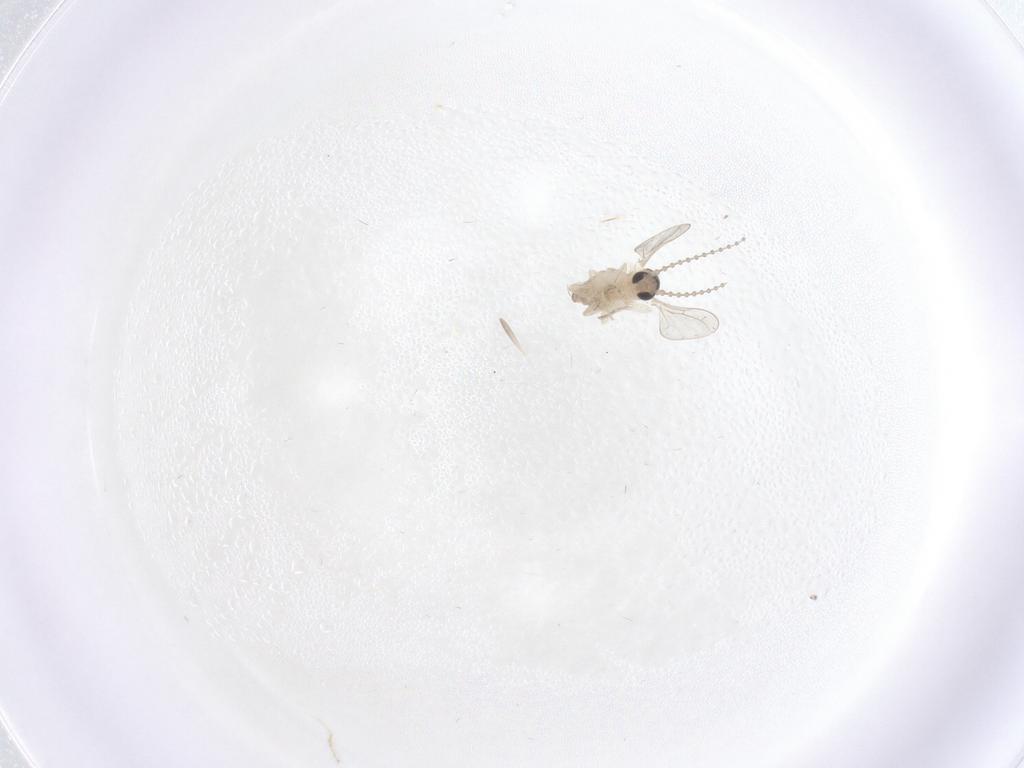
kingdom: Animalia
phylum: Arthropoda
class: Insecta
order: Diptera
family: Cecidomyiidae
